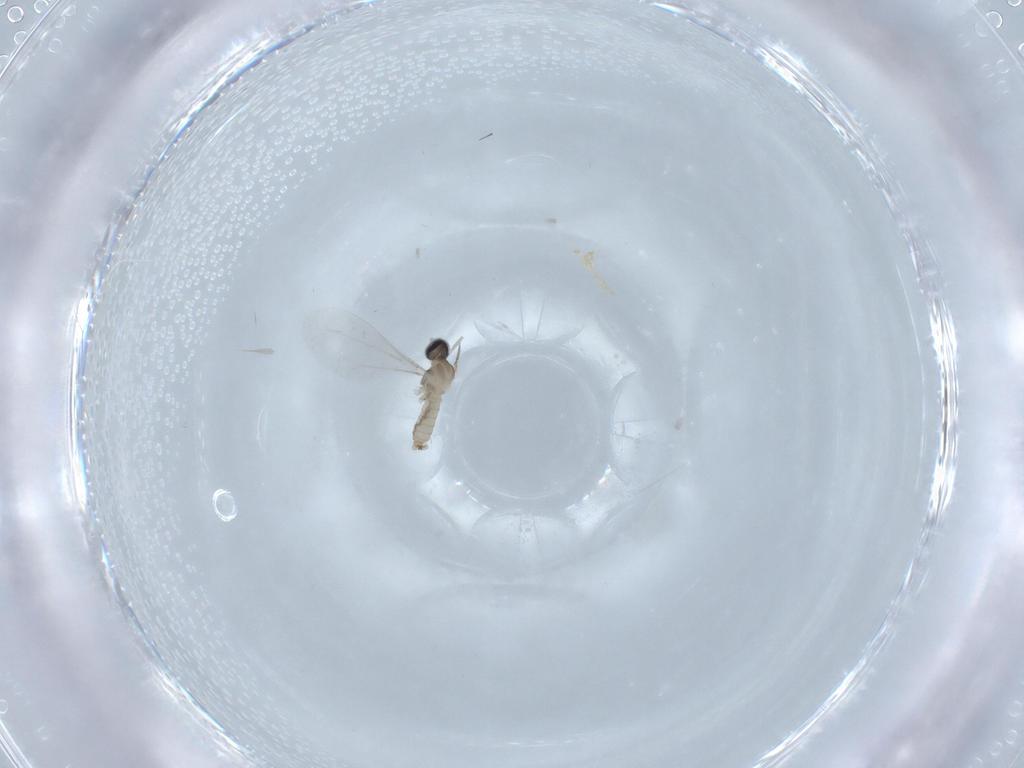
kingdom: Animalia
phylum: Arthropoda
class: Insecta
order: Diptera
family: Cecidomyiidae
